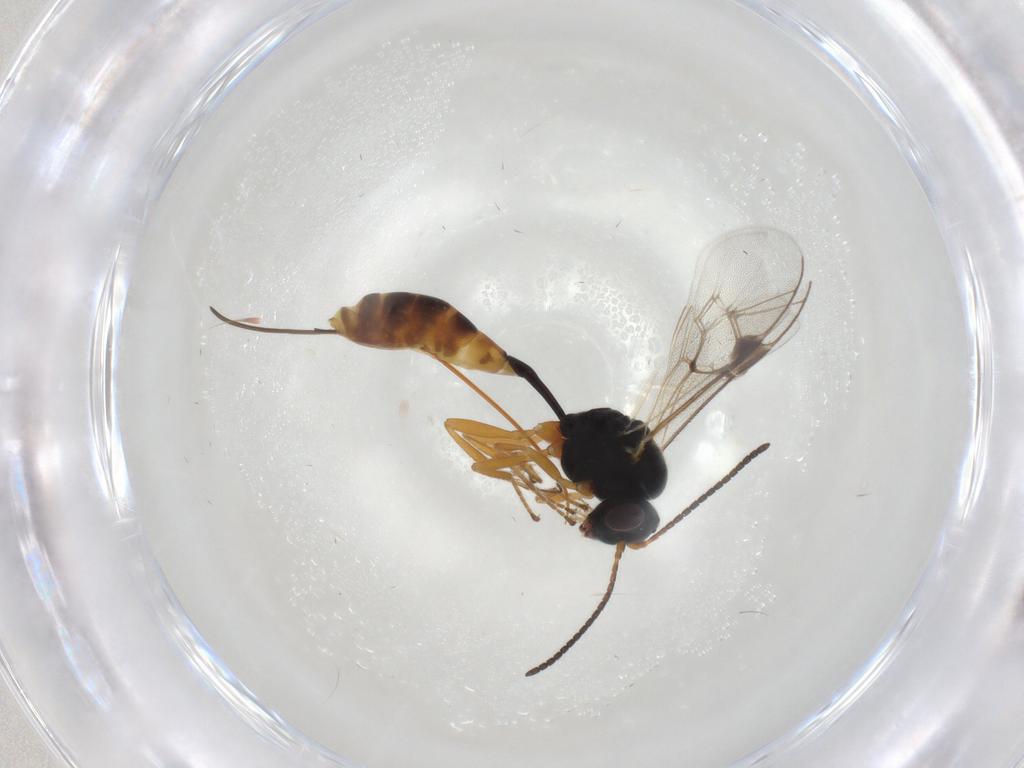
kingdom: Animalia
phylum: Arthropoda
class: Insecta
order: Hymenoptera
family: Ichneumonidae
